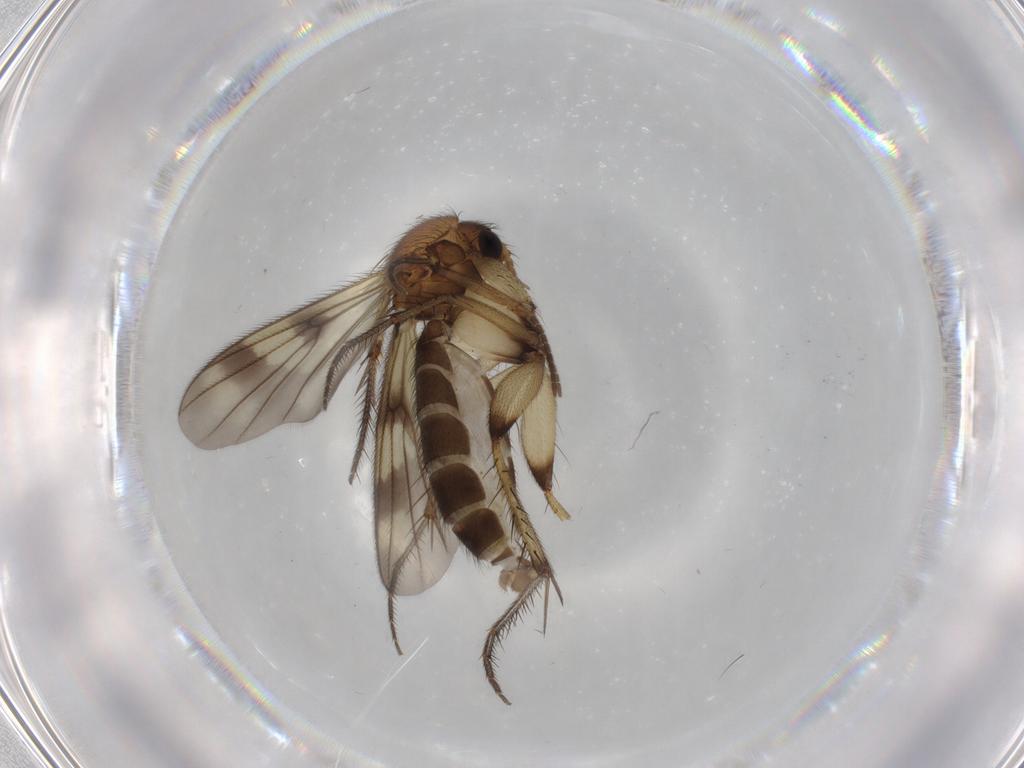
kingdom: Animalia
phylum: Arthropoda
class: Insecta
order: Diptera
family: Mycetophilidae
